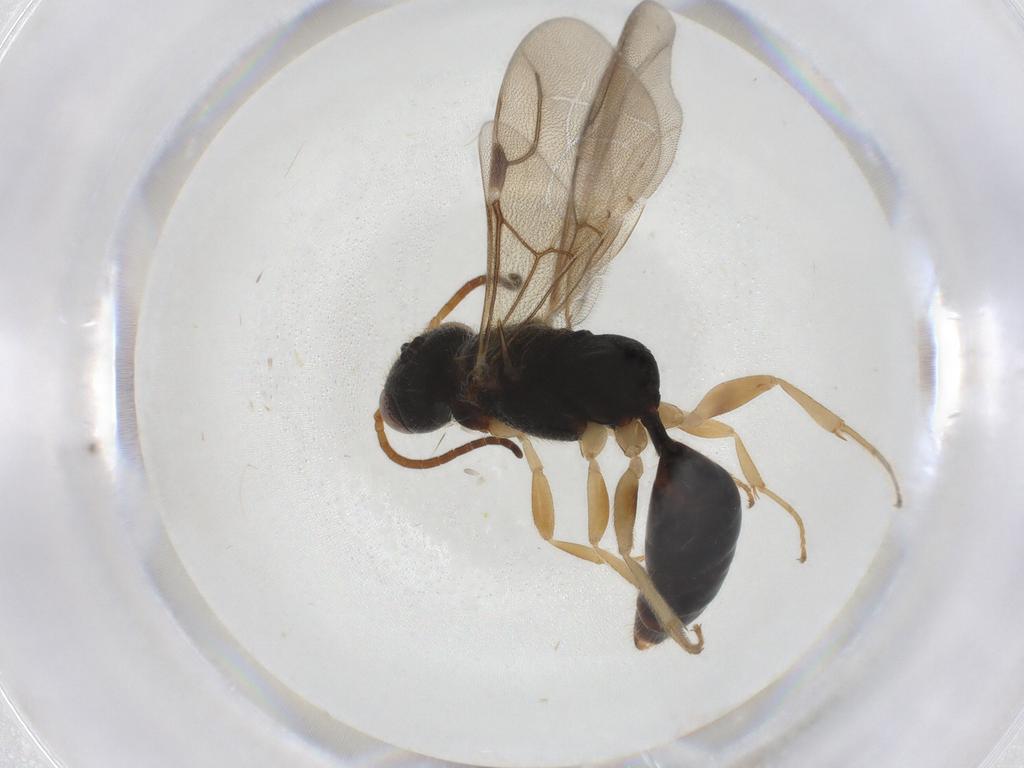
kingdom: Animalia
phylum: Arthropoda
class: Insecta
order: Hymenoptera
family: Bethylidae
